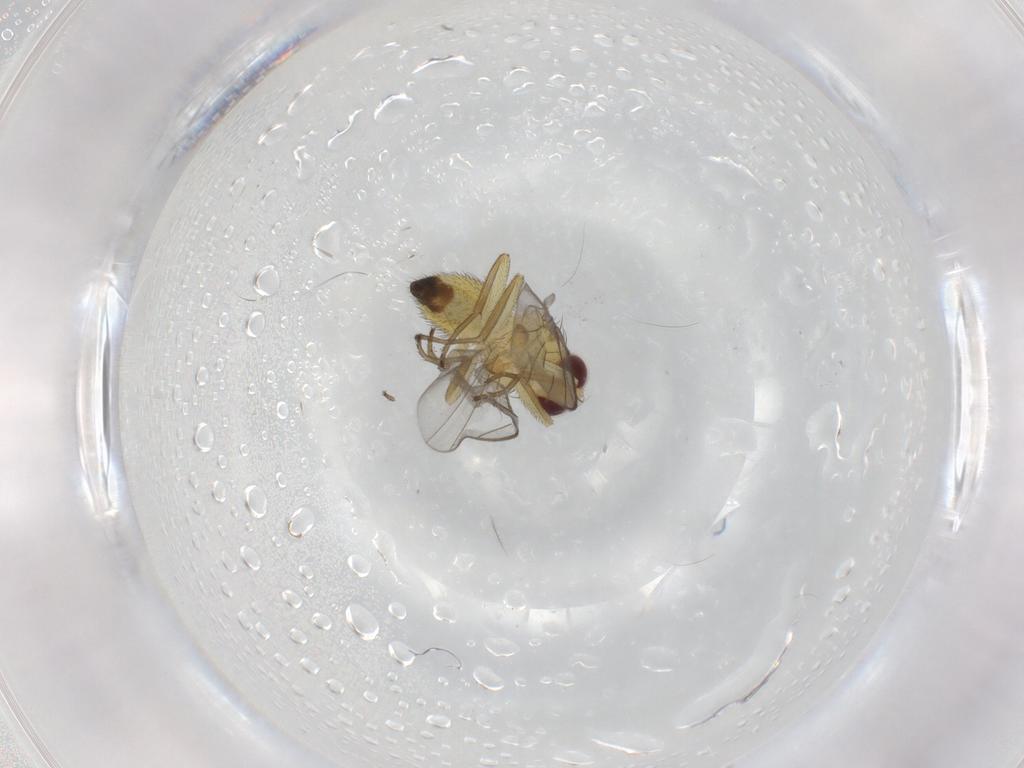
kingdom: Animalia
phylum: Arthropoda
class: Insecta
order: Diptera
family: Agromyzidae
